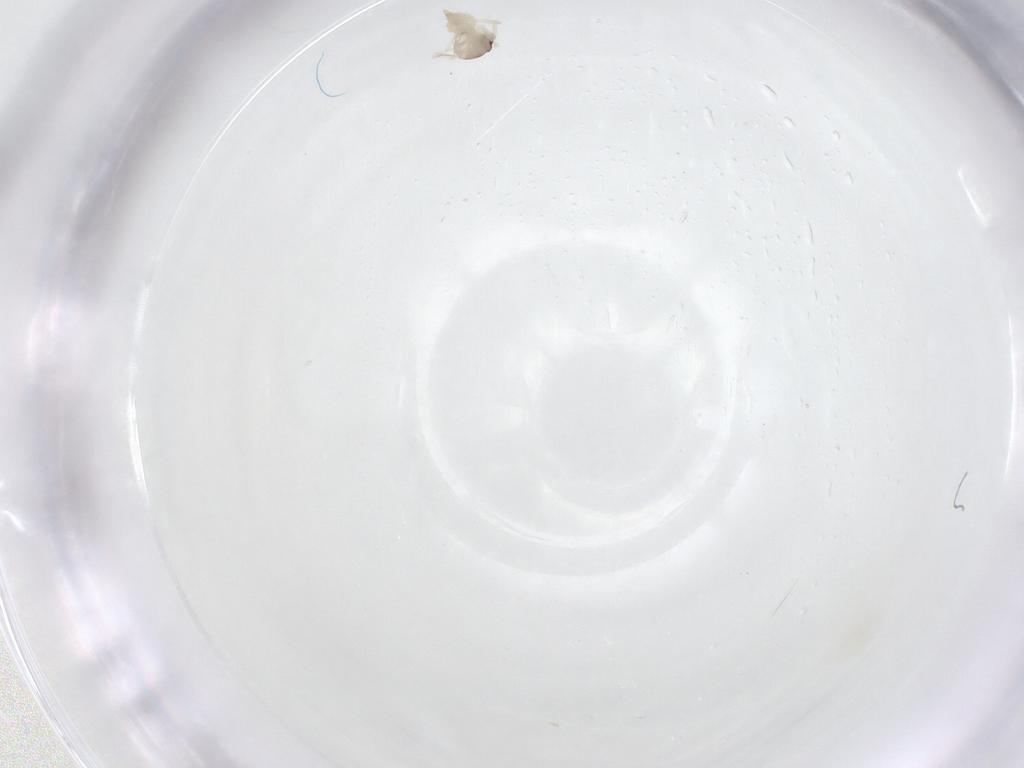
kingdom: Animalia
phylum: Arthropoda
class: Insecta
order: Diptera
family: Cecidomyiidae
